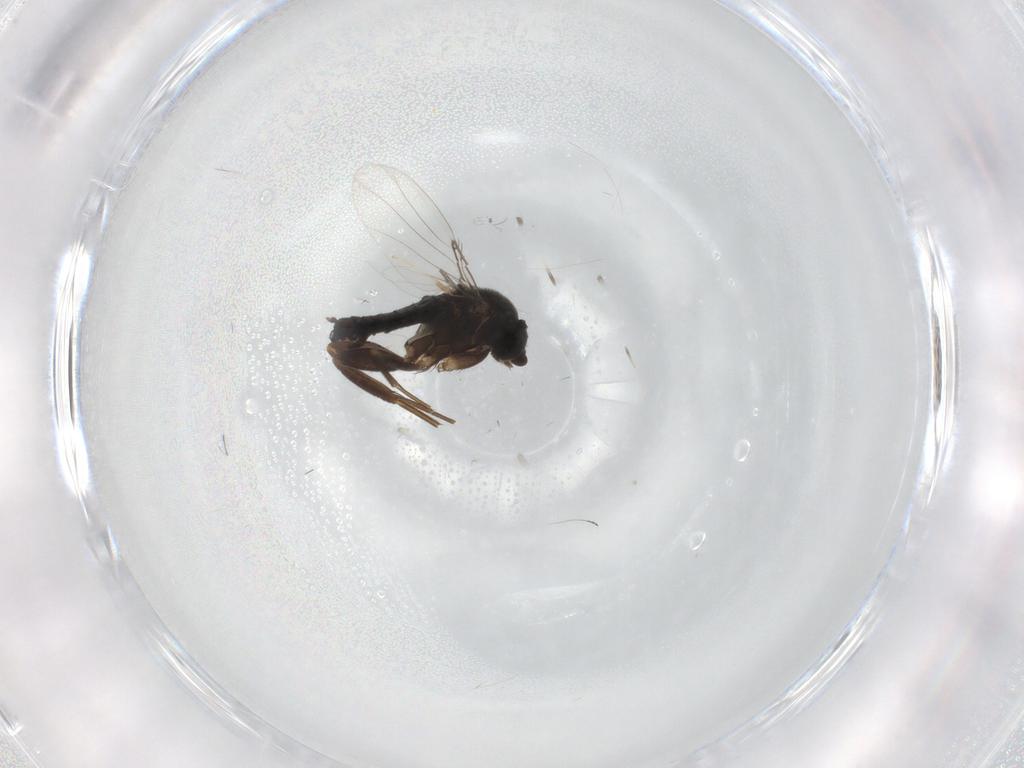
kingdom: Animalia
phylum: Arthropoda
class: Insecta
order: Diptera
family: Phoridae
